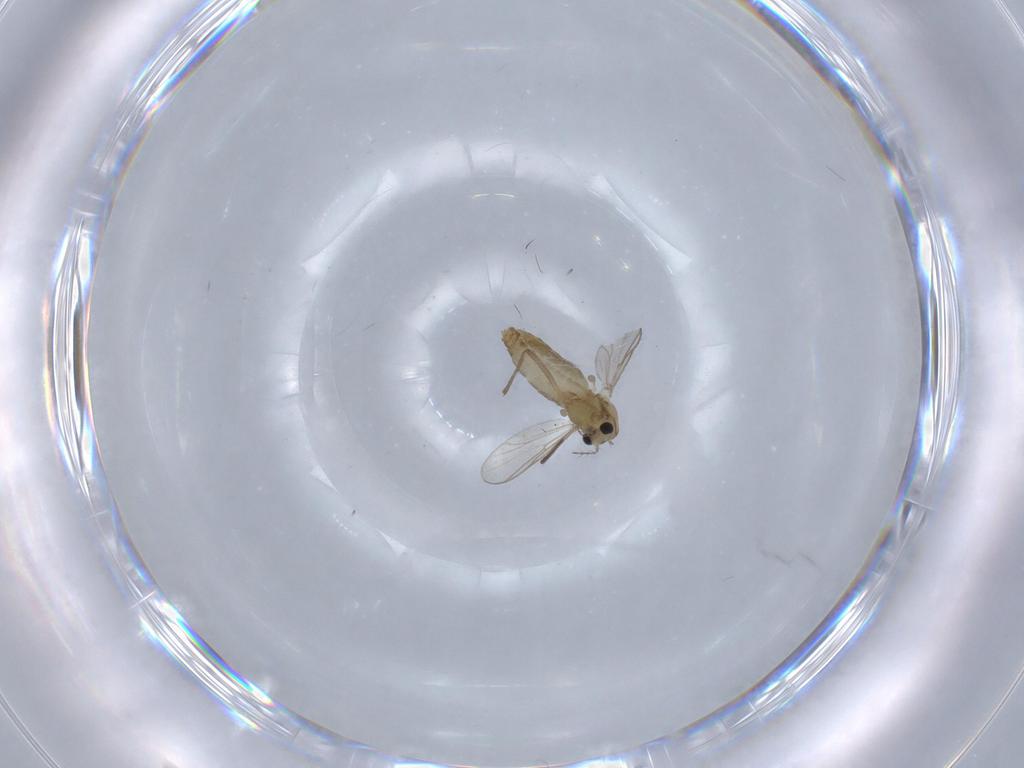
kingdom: Animalia
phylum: Arthropoda
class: Insecta
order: Diptera
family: Chironomidae
